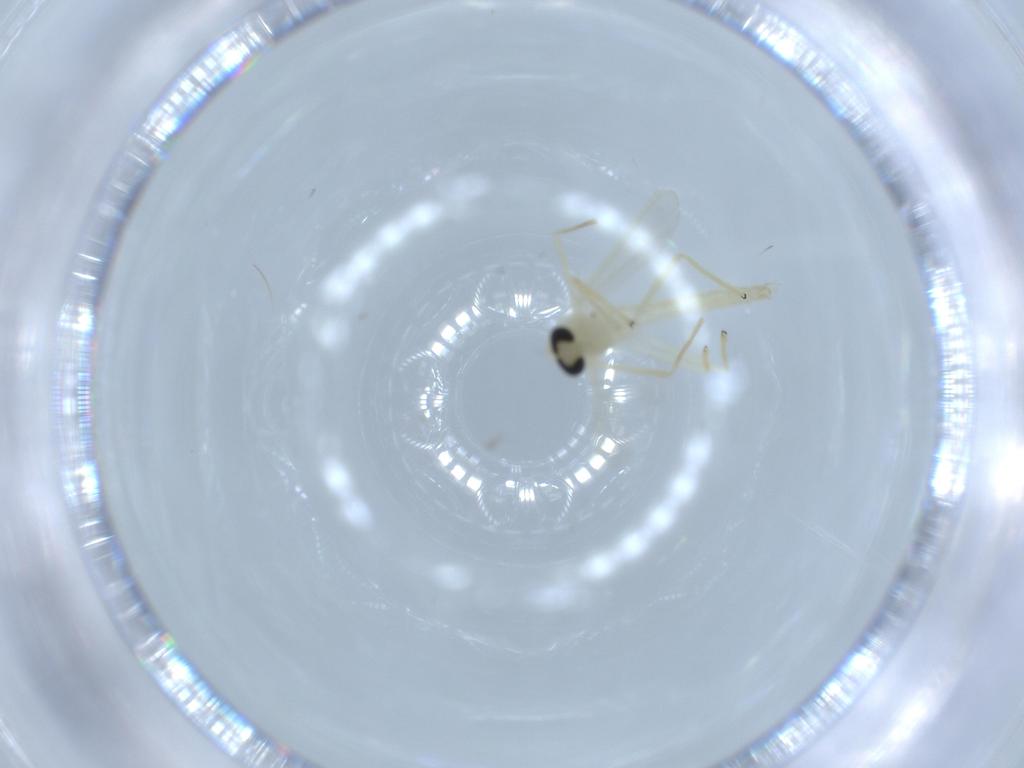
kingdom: Animalia
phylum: Arthropoda
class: Insecta
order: Diptera
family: Chironomidae
